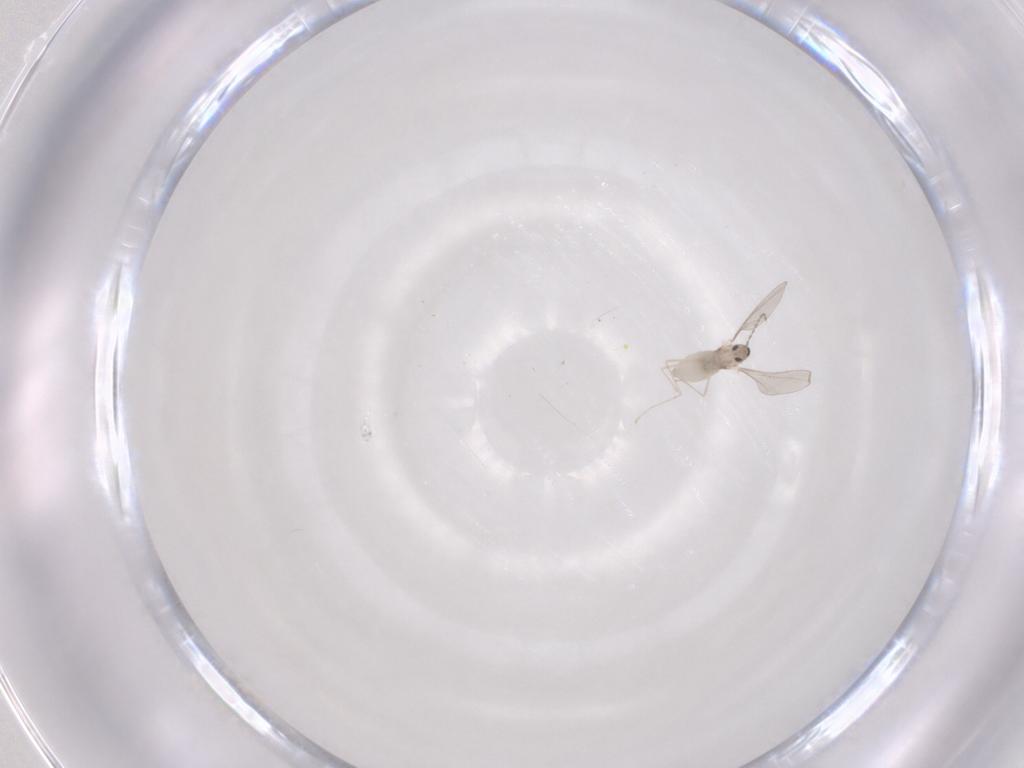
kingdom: Animalia
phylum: Arthropoda
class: Insecta
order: Diptera
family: Cecidomyiidae
